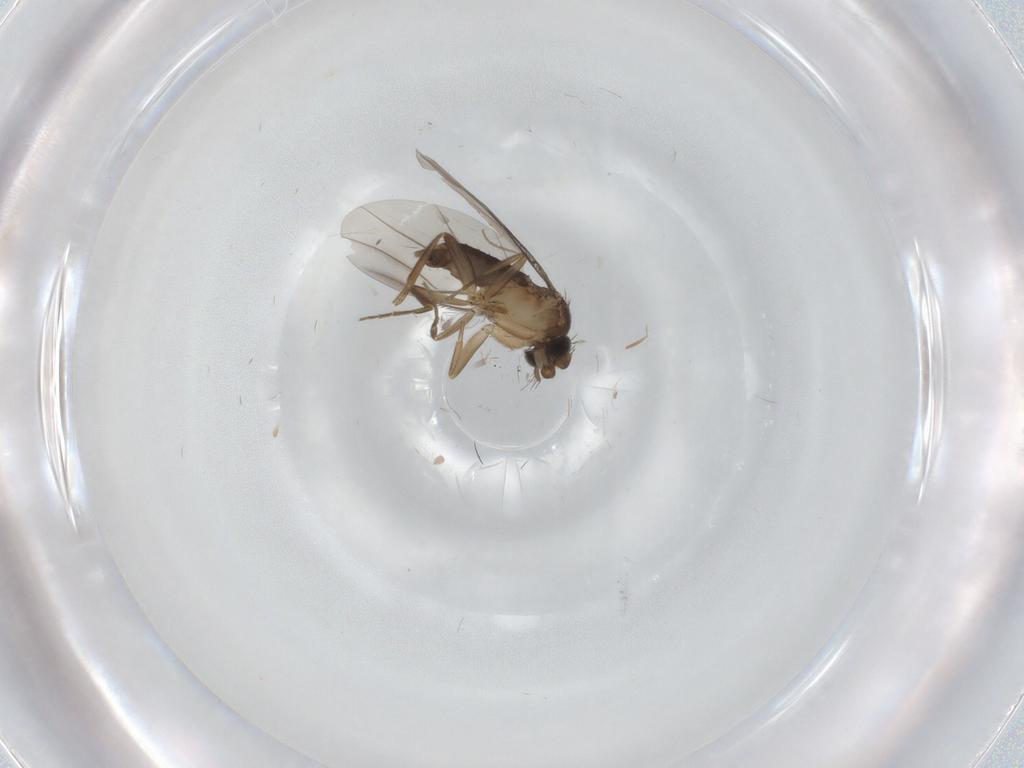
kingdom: Animalia
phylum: Arthropoda
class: Insecta
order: Diptera
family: Phoridae
